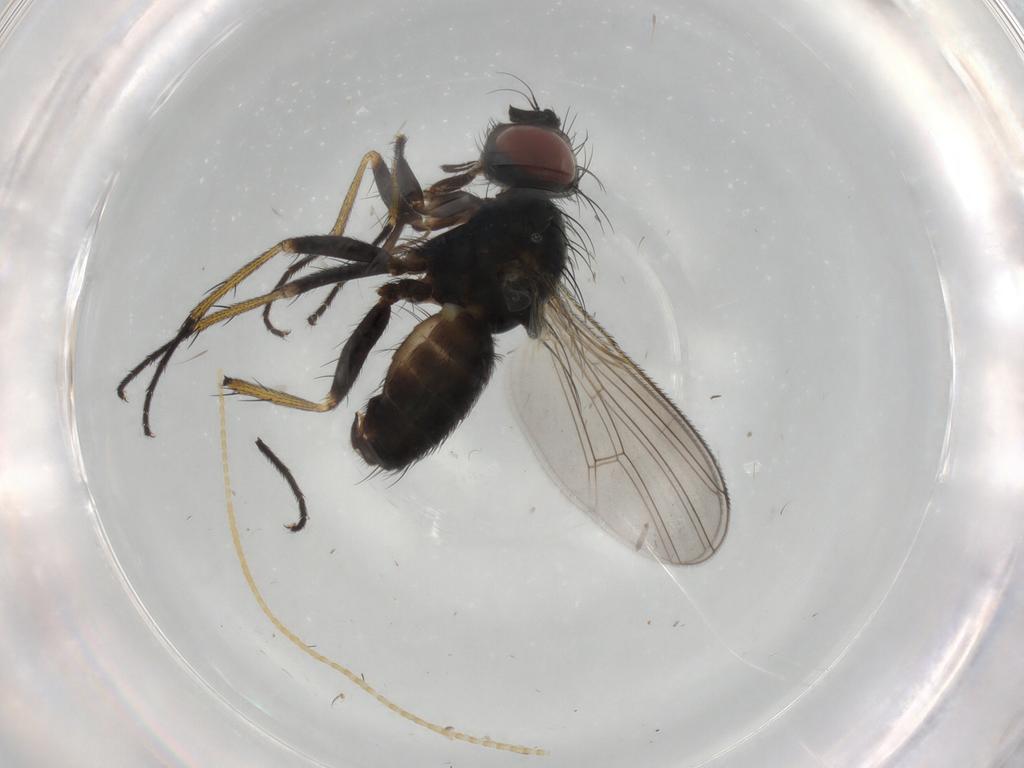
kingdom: Animalia
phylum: Arthropoda
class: Insecta
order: Diptera
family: Muscidae
